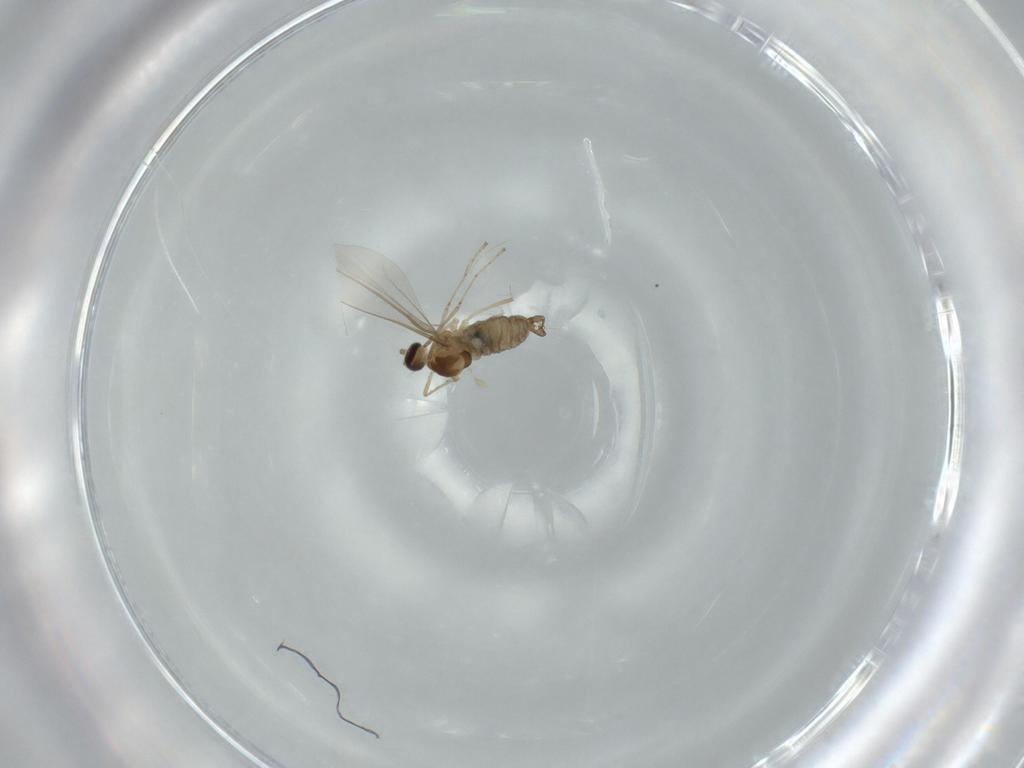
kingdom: Animalia
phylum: Arthropoda
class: Insecta
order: Diptera
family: Cecidomyiidae
